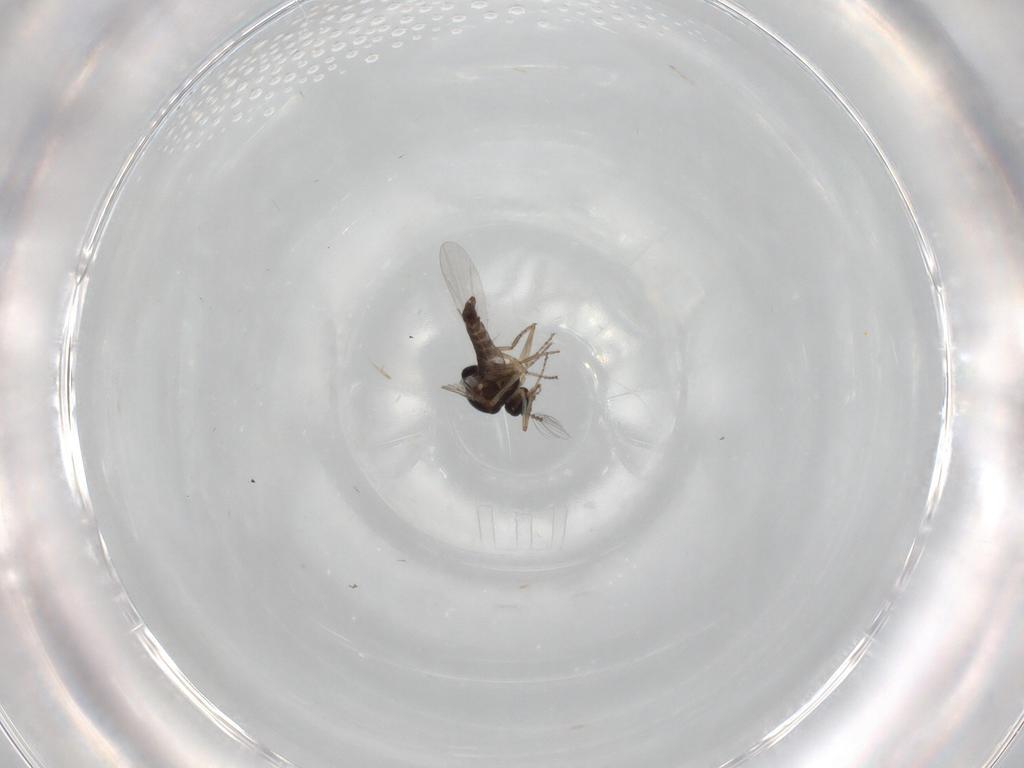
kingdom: Animalia
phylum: Arthropoda
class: Insecta
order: Diptera
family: Ceratopogonidae
